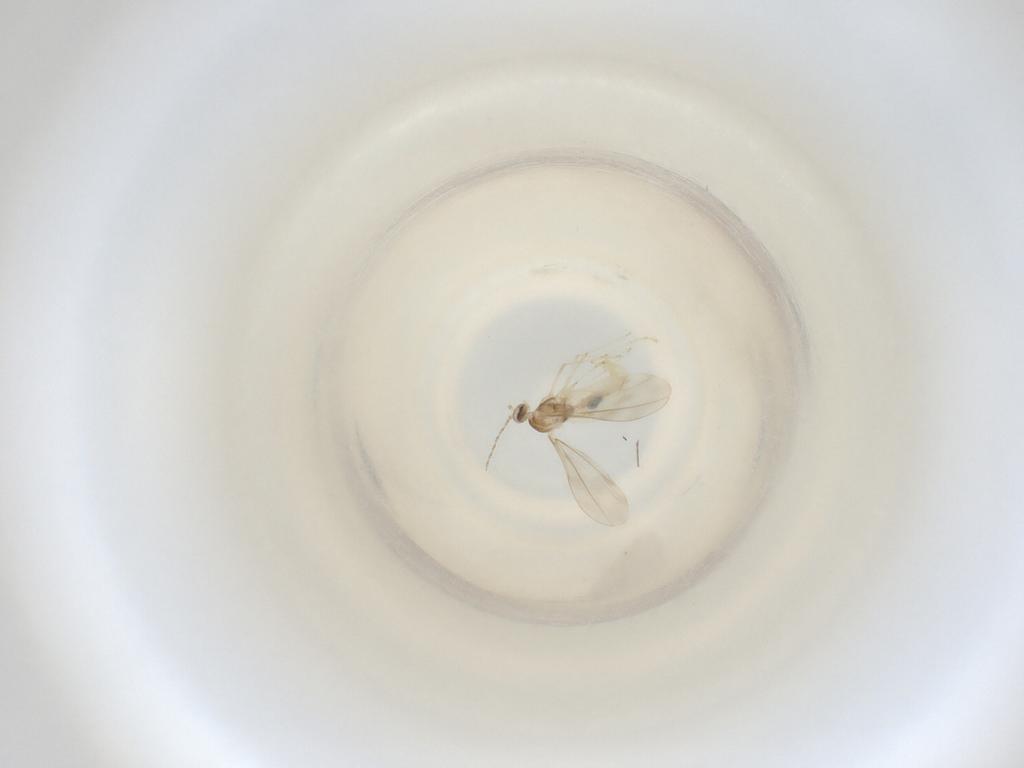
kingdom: Animalia
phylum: Arthropoda
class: Insecta
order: Diptera
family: Cecidomyiidae
